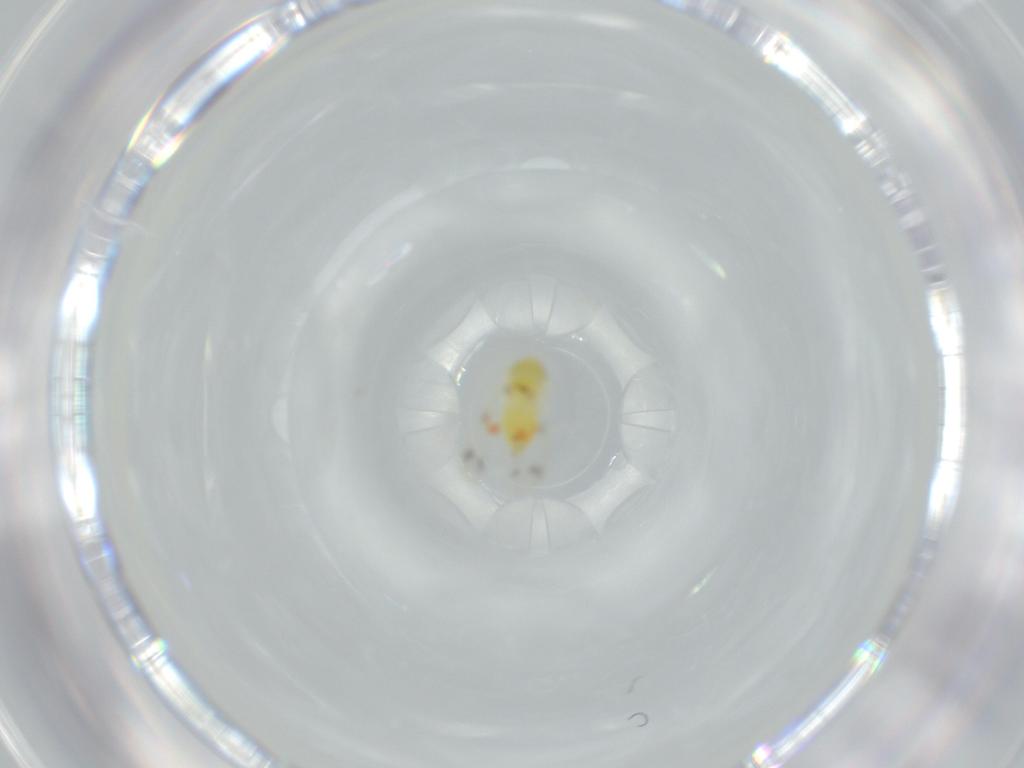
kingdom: Animalia
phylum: Arthropoda
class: Insecta
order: Hemiptera
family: Aleyrodidae
